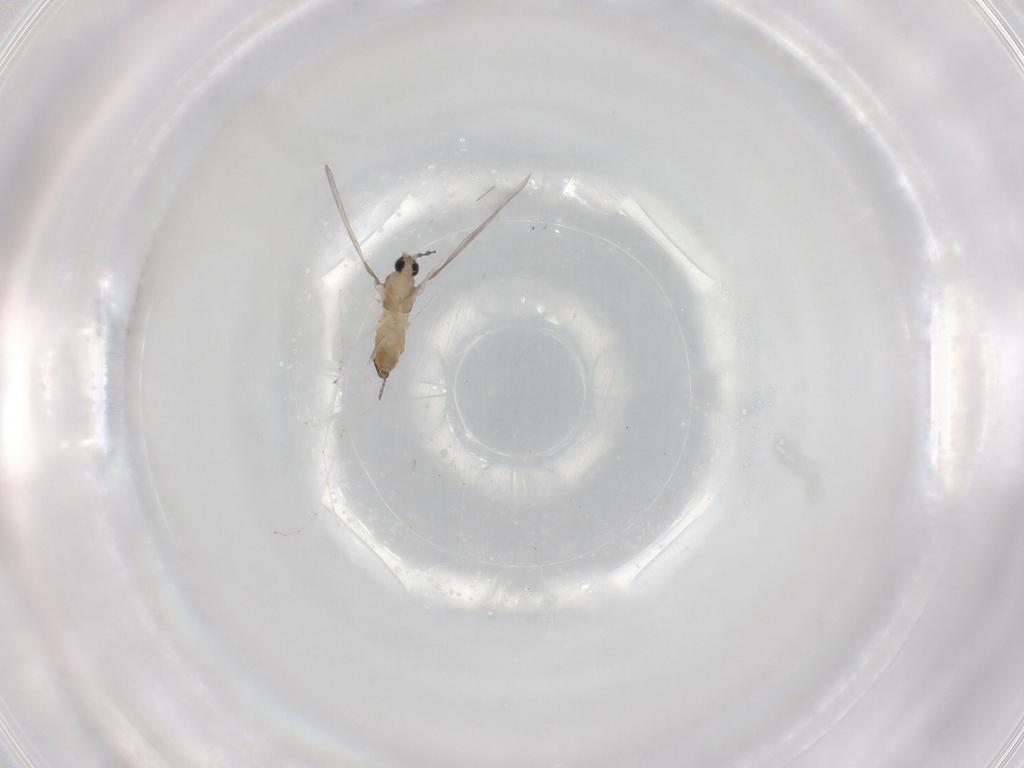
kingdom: Animalia
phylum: Arthropoda
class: Insecta
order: Diptera
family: Cecidomyiidae
